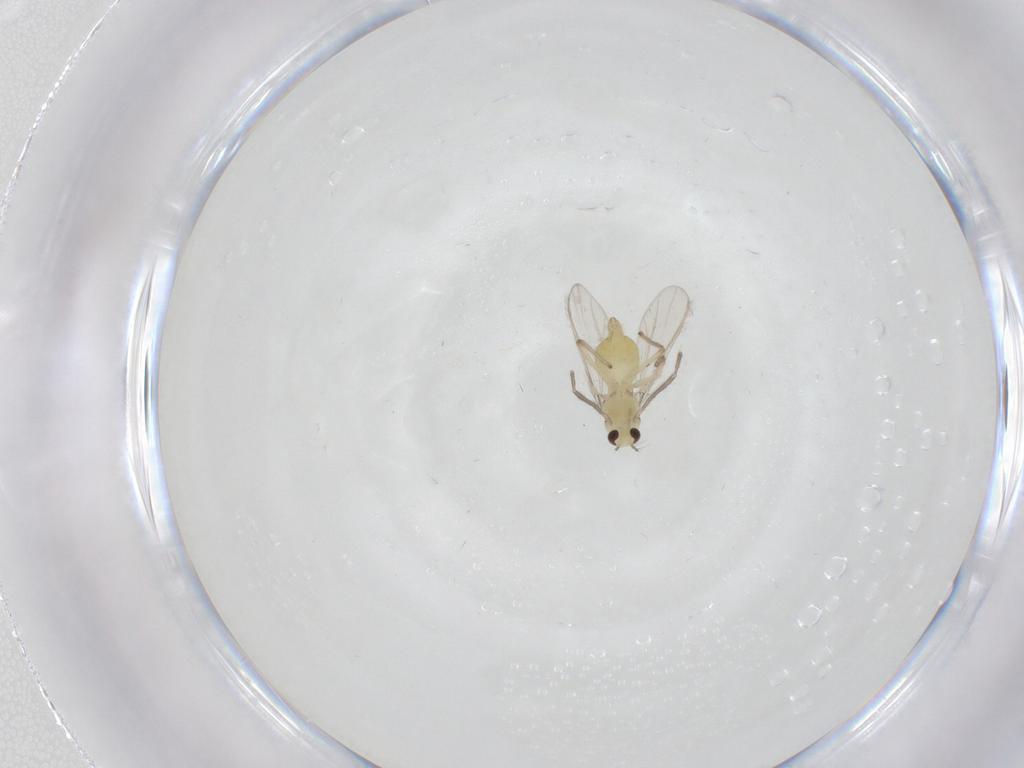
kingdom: Animalia
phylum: Arthropoda
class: Insecta
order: Diptera
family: Chironomidae
